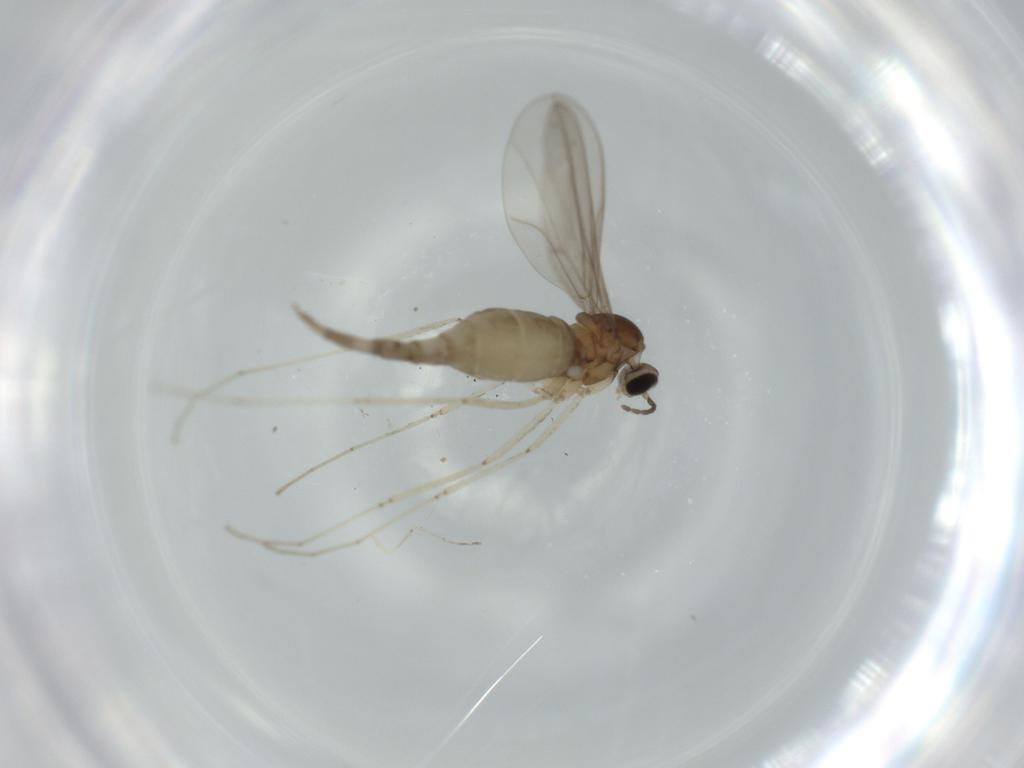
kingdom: Animalia
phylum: Arthropoda
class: Insecta
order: Diptera
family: Cecidomyiidae
